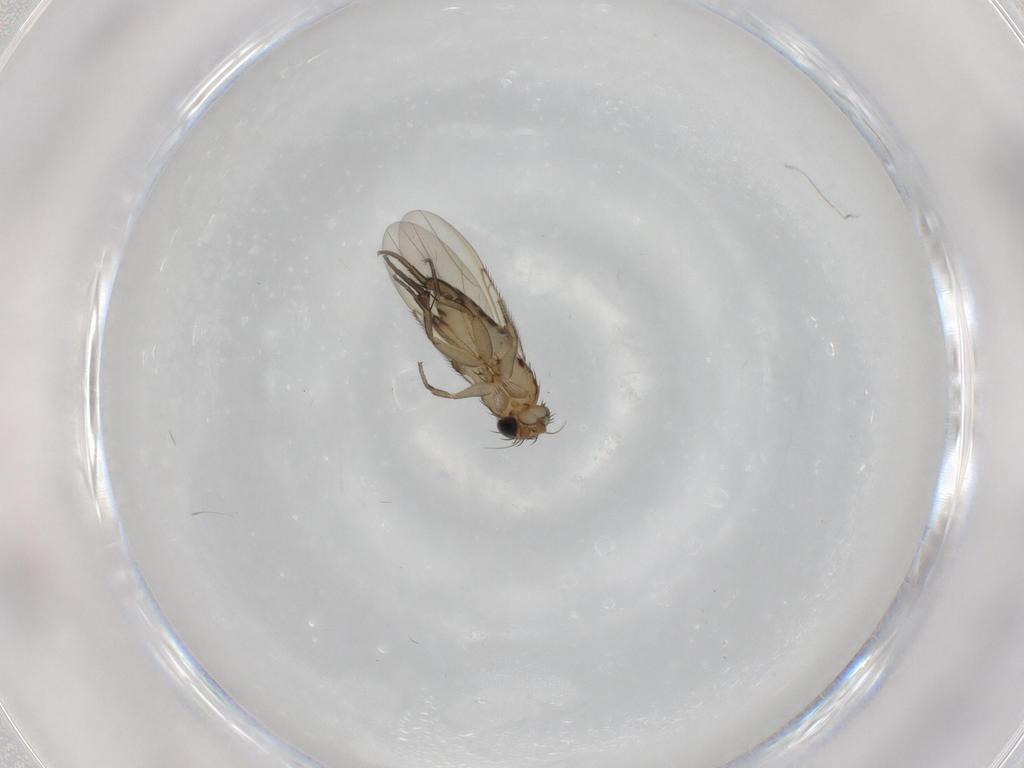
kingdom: Animalia
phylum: Arthropoda
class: Insecta
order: Diptera
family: Phoridae
